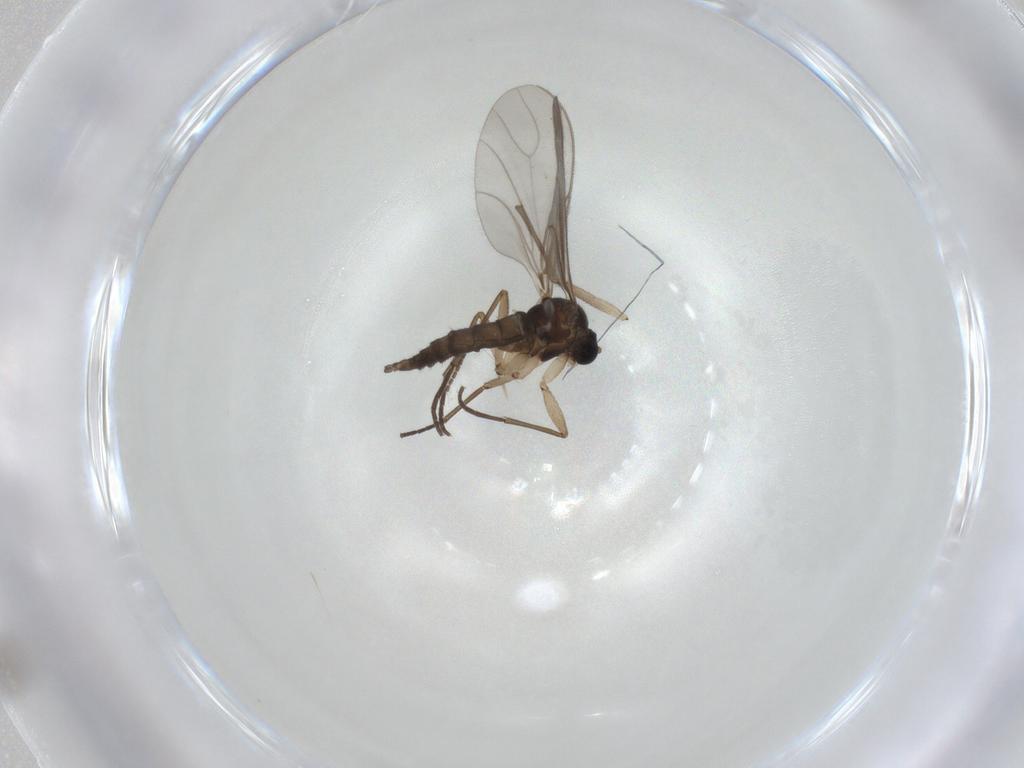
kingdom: Animalia
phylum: Arthropoda
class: Insecta
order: Diptera
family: Sciaridae
